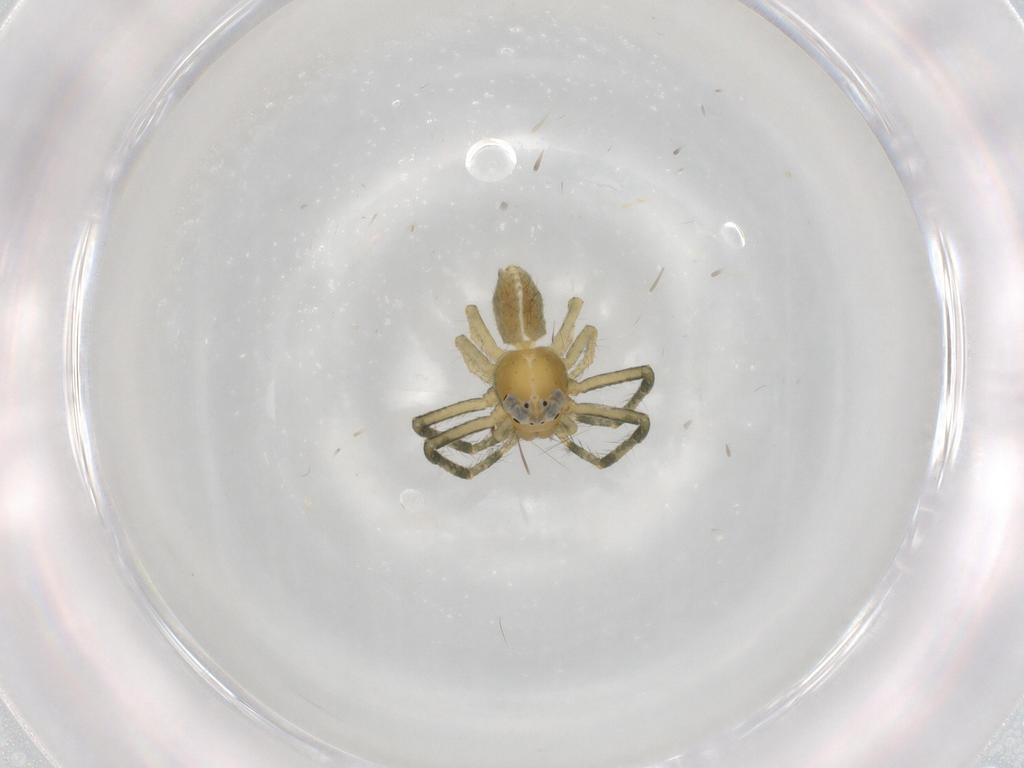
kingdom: Animalia
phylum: Arthropoda
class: Arachnida
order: Araneae
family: Thomisidae
